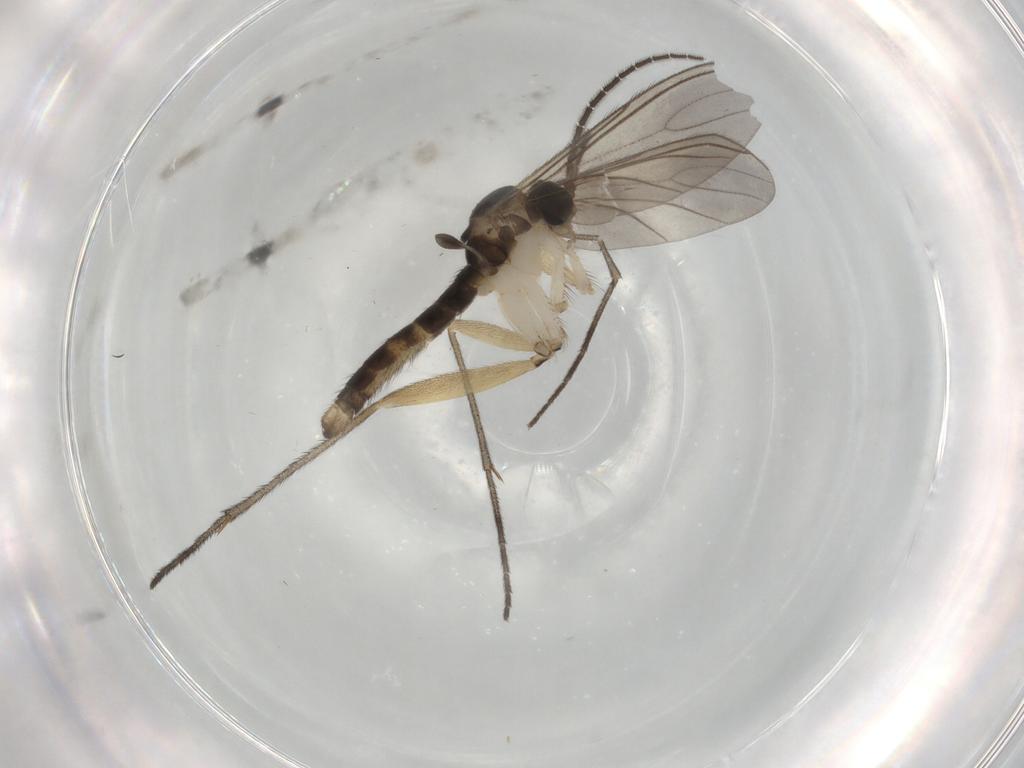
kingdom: Animalia
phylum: Arthropoda
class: Insecta
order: Diptera
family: Sciaridae
